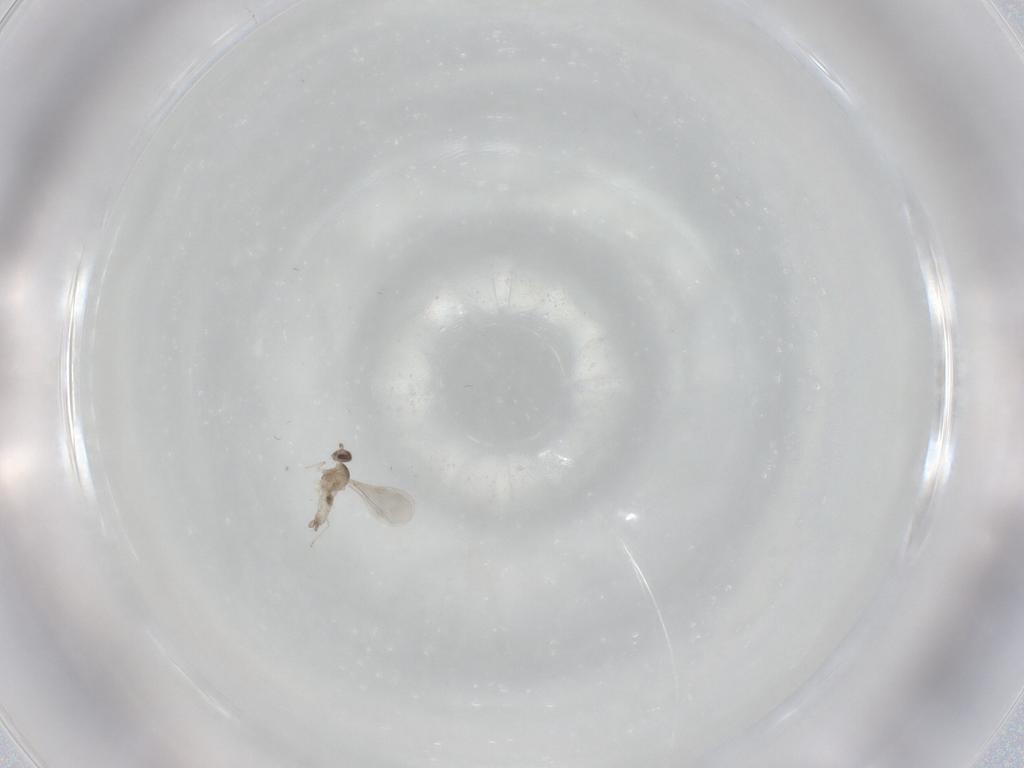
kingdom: Animalia
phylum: Arthropoda
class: Insecta
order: Diptera
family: Cecidomyiidae
